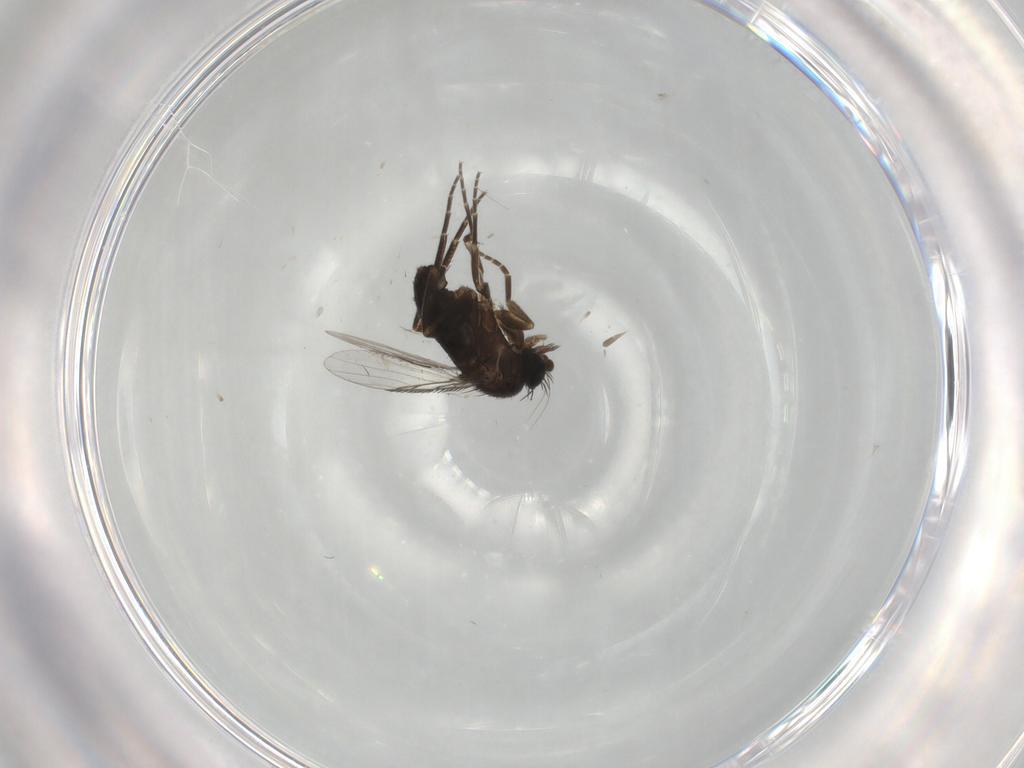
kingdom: Animalia
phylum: Arthropoda
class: Insecta
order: Diptera
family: Phoridae
